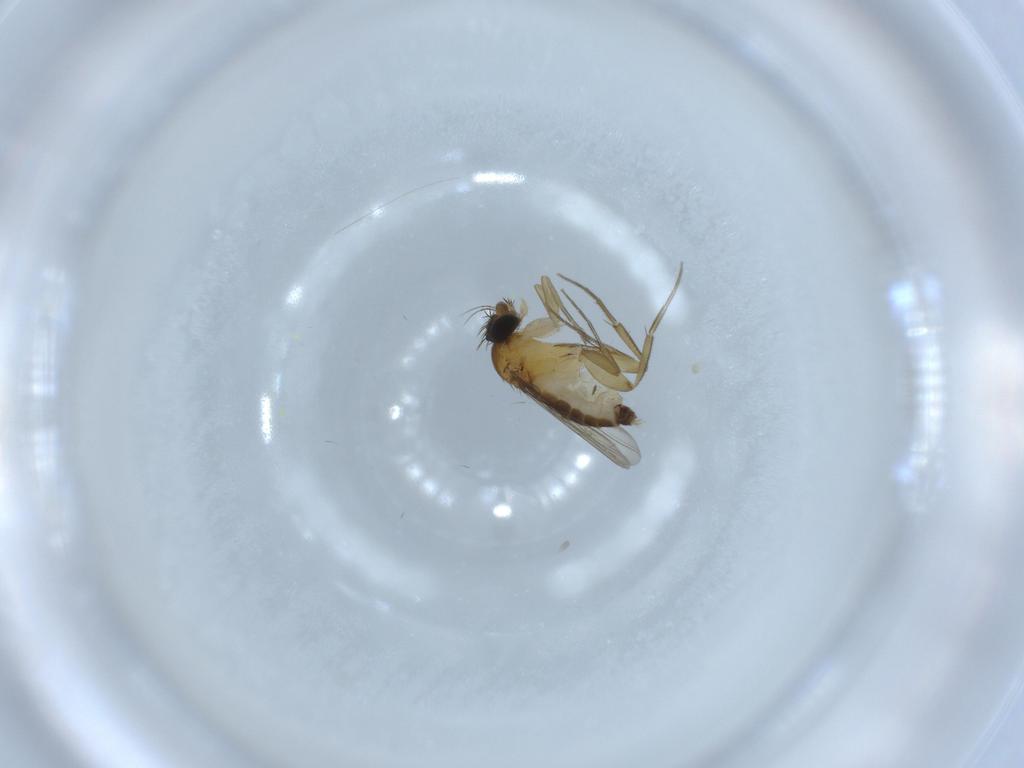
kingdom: Animalia
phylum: Arthropoda
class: Insecta
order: Diptera
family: Phoridae
